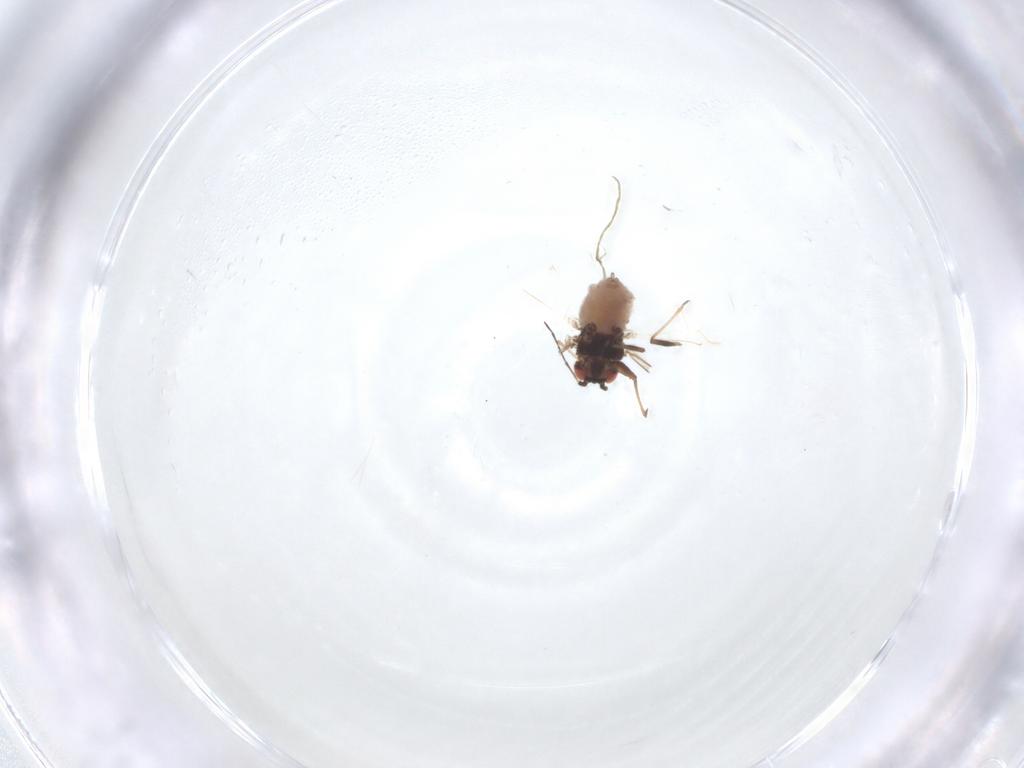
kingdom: Animalia
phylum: Arthropoda
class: Insecta
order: Hemiptera
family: Aphididae
